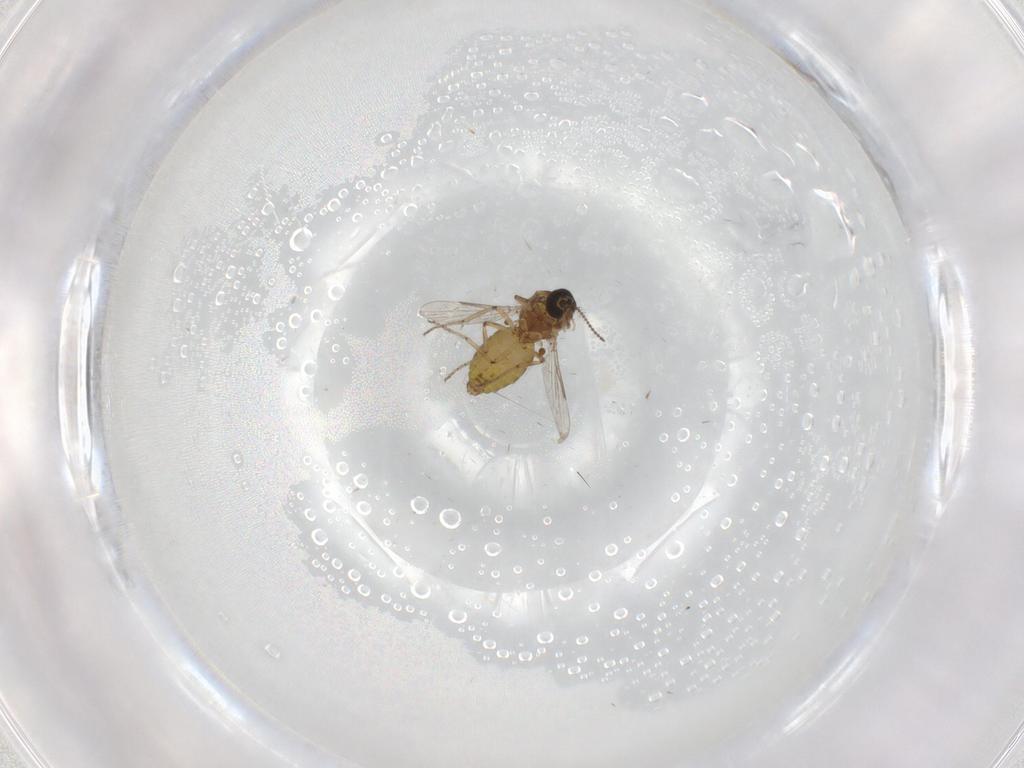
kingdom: Animalia
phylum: Arthropoda
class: Insecta
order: Diptera
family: Ceratopogonidae
